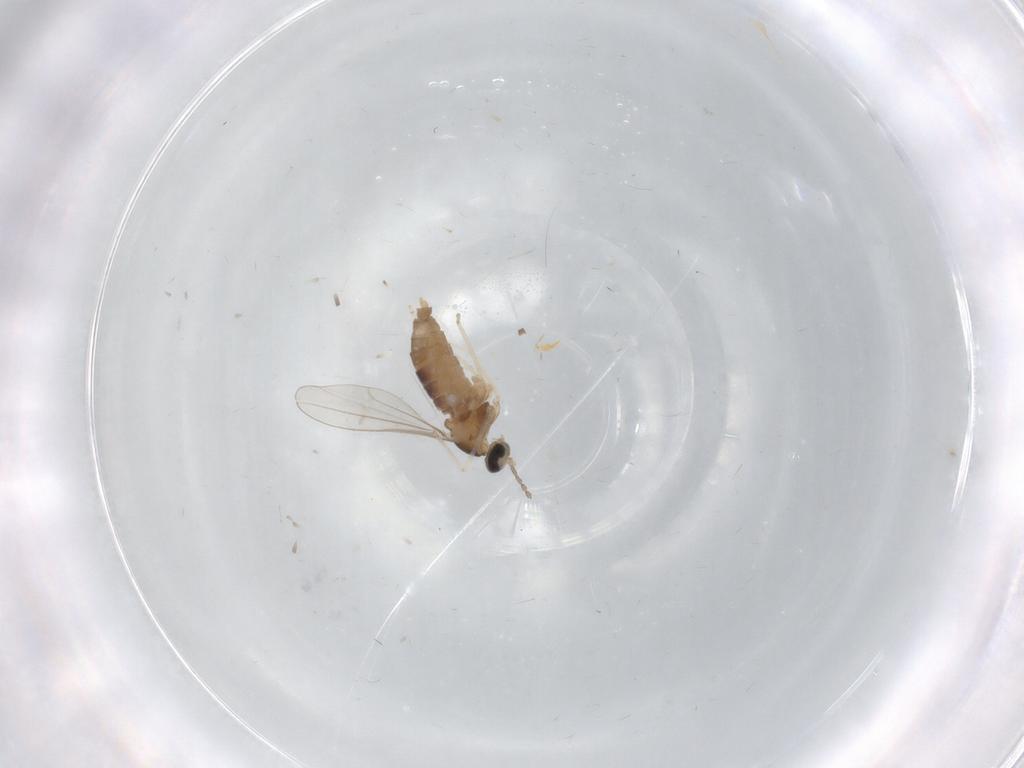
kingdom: Animalia
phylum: Arthropoda
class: Insecta
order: Diptera
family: Cecidomyiidae
